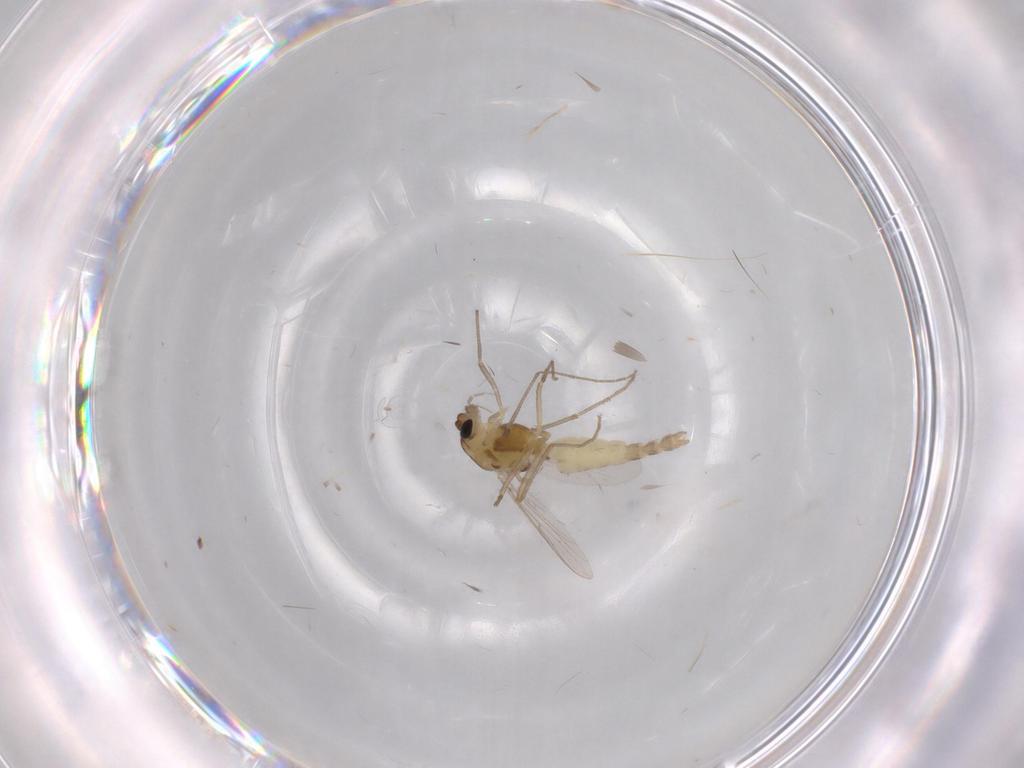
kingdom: Animalia
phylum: Arthropoda
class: Insecta
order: Diptera
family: Chironomidae
